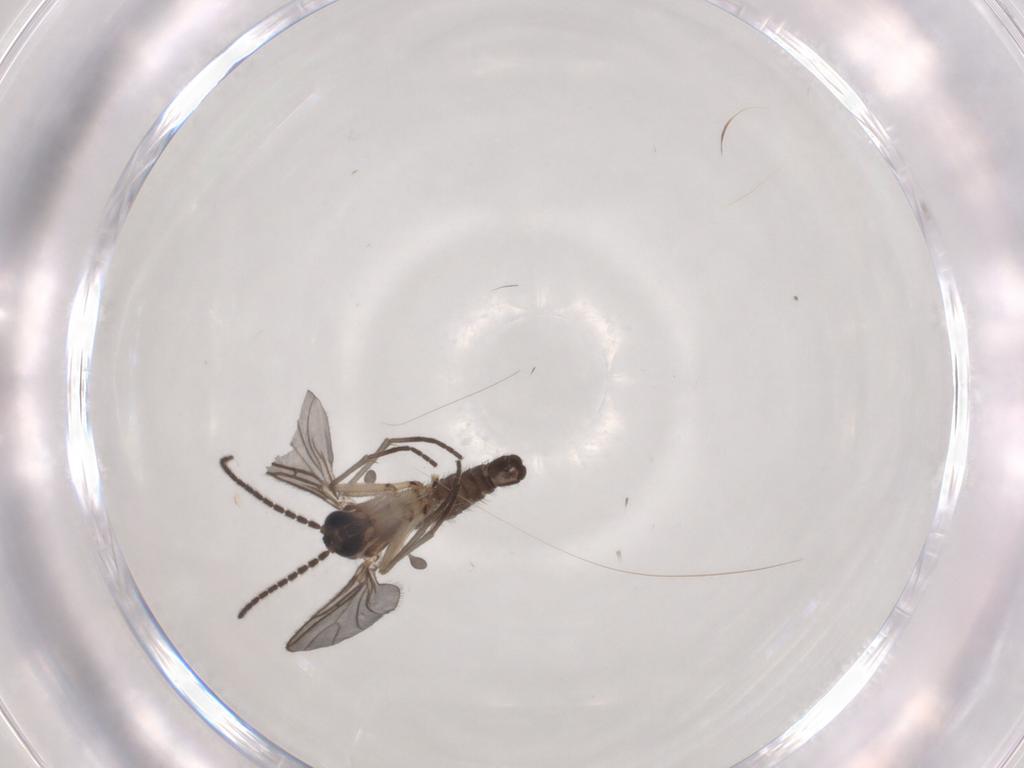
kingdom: Animalia
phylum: Arthropoda
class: Insecta
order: Diptera
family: Sciaridae
